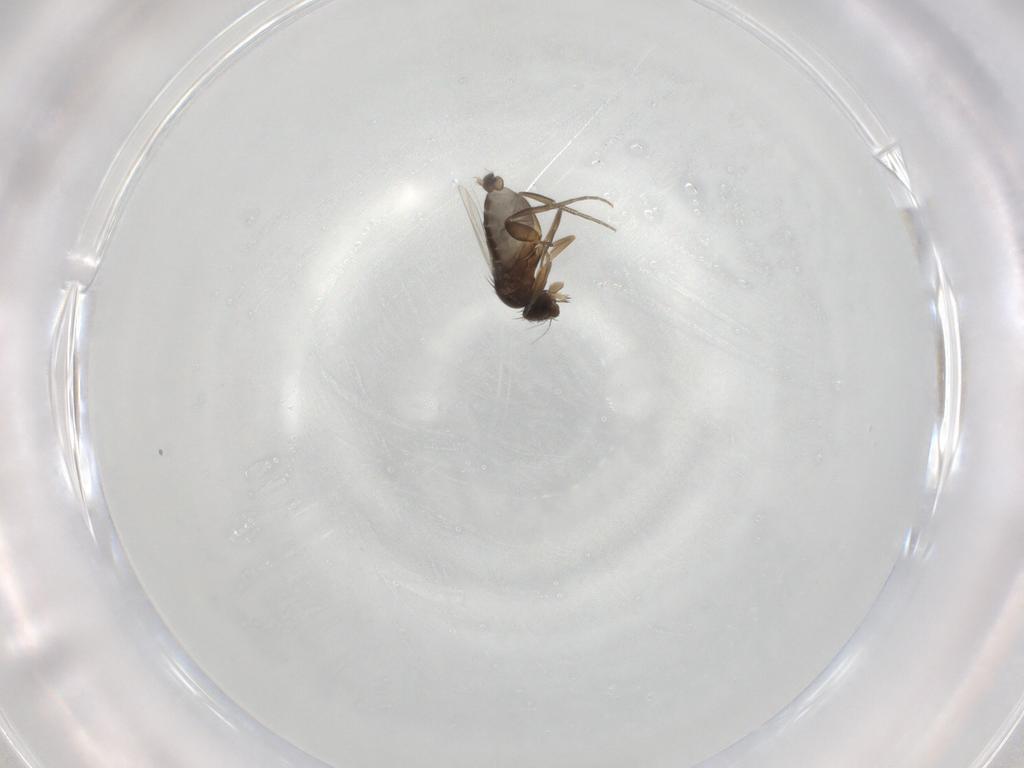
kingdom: Animalia
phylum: Arthropoda
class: Insecta
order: Diptera
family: Phoridae
